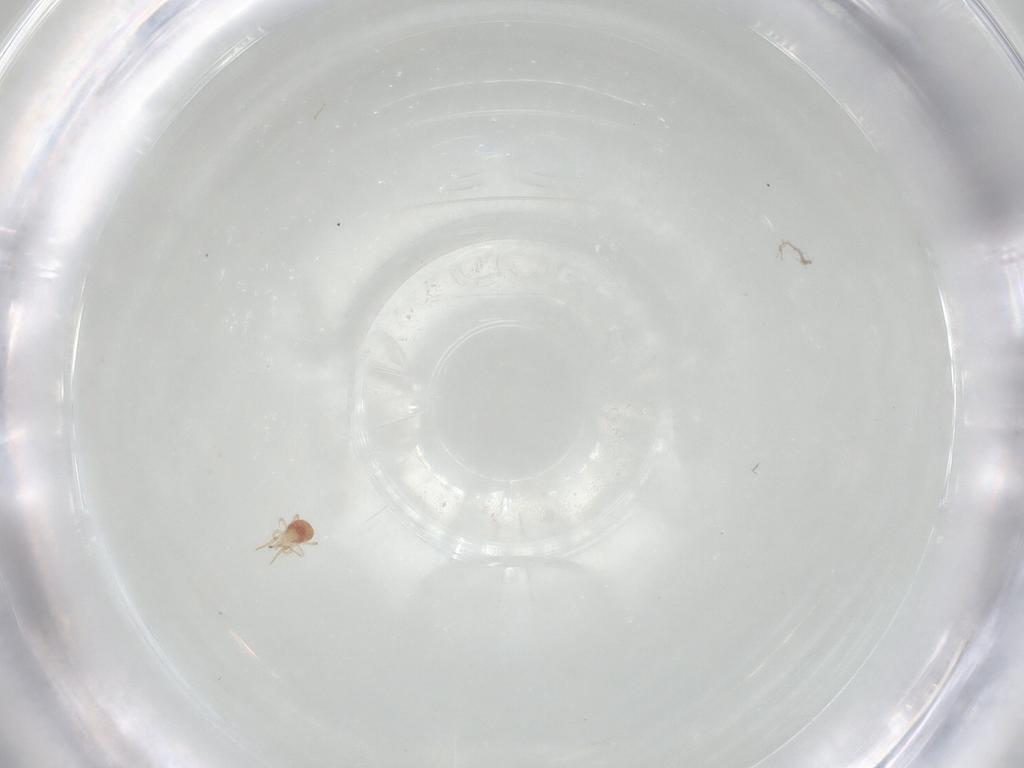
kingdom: Animalia
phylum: Arthropoda
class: Arachnida
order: Mesostigmata
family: Phytoseiidae
